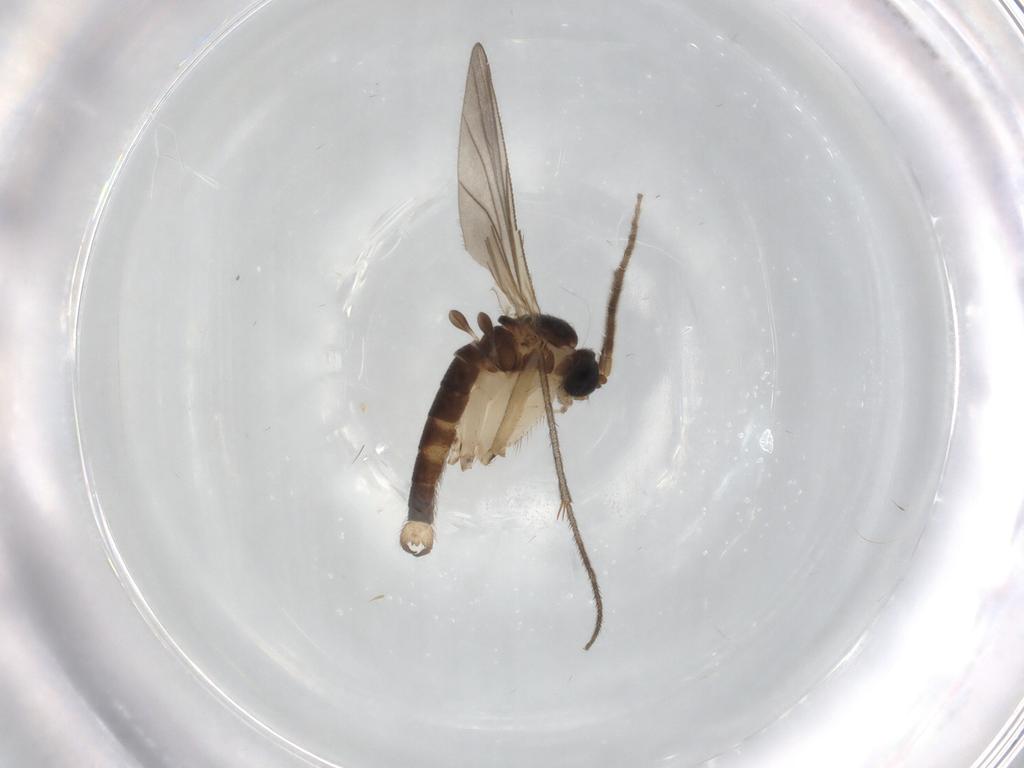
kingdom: Animalia
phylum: Arthropoda
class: Insecta
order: Diptera
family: Sciaridae
